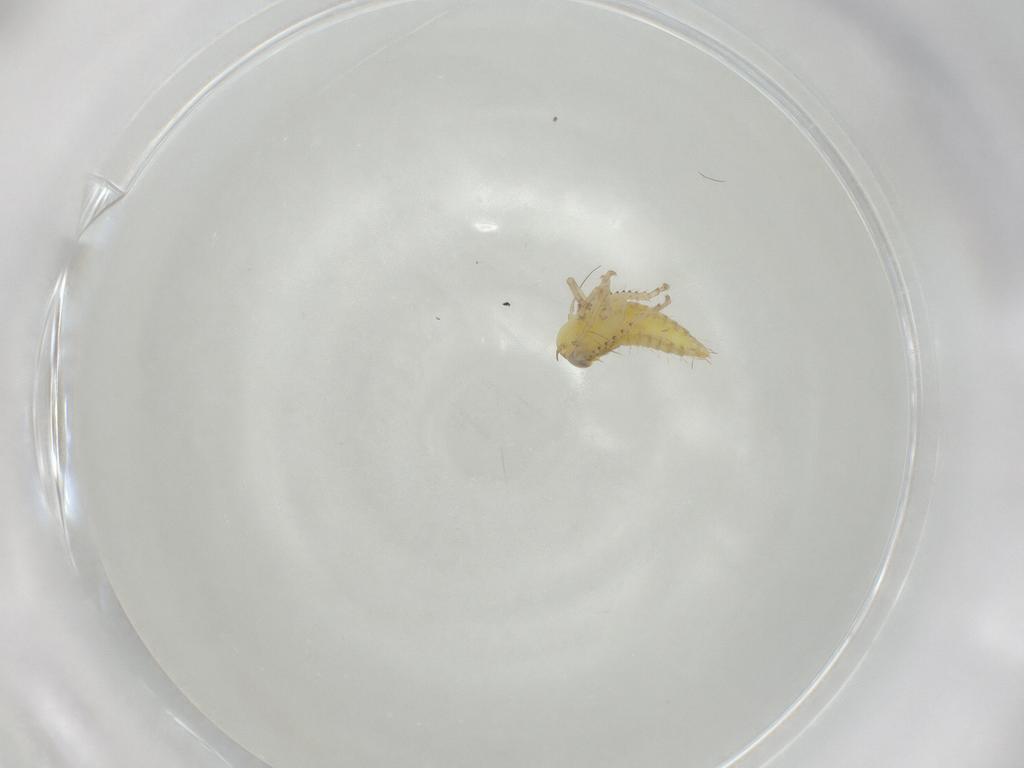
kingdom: Animalia
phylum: Arthropoda
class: Insecta
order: Hemiptera
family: Cicadellidae
